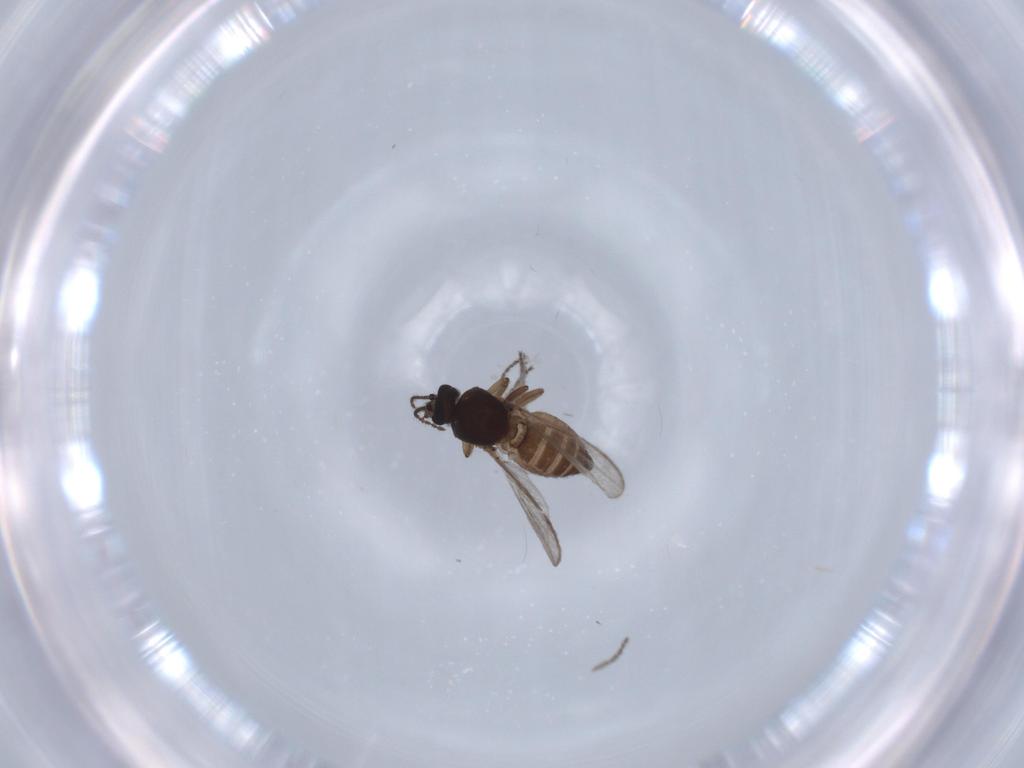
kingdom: Animalia
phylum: Arthropoda
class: Insecta
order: Diptera
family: Ceratopogonidae
